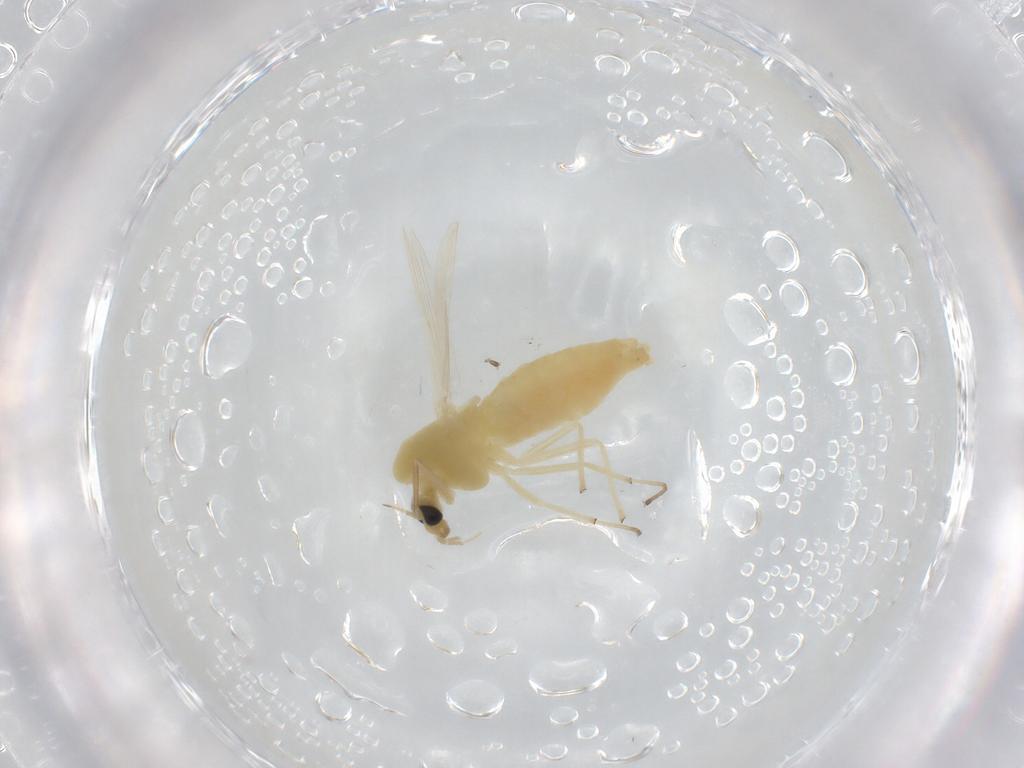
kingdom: Animalia
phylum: Arthropoda
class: Insecta
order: Diptera
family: Chironomidae
